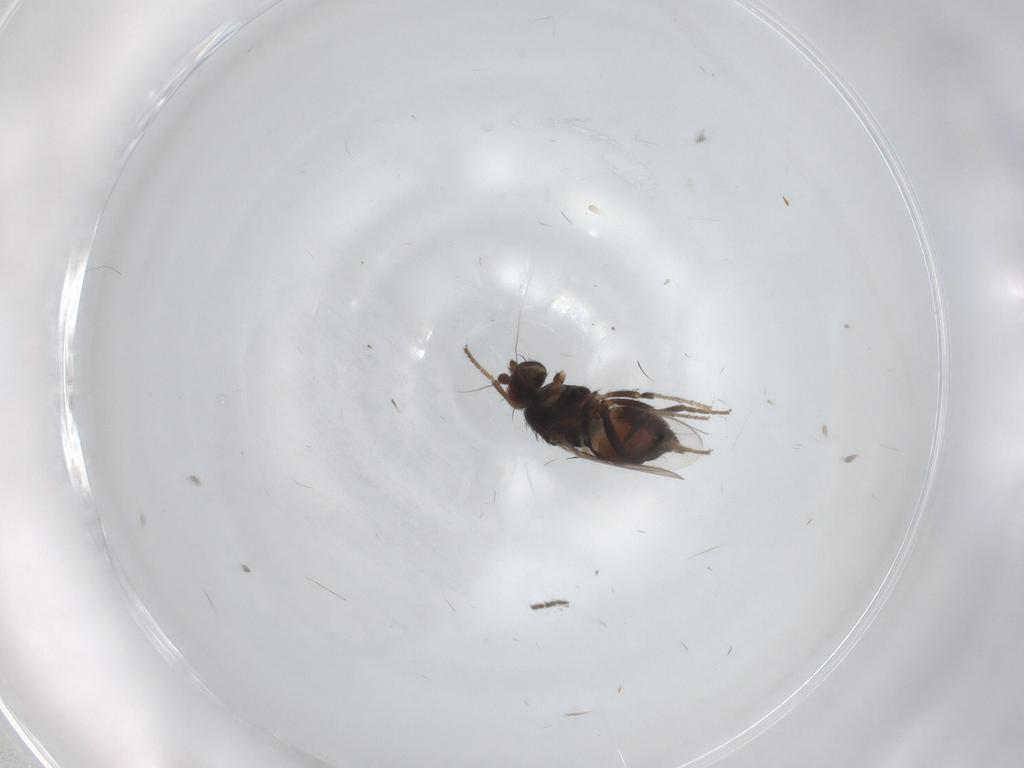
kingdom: Animalia
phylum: Arthropoda
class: Insecta
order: Diptera
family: Sphaeroceridae
